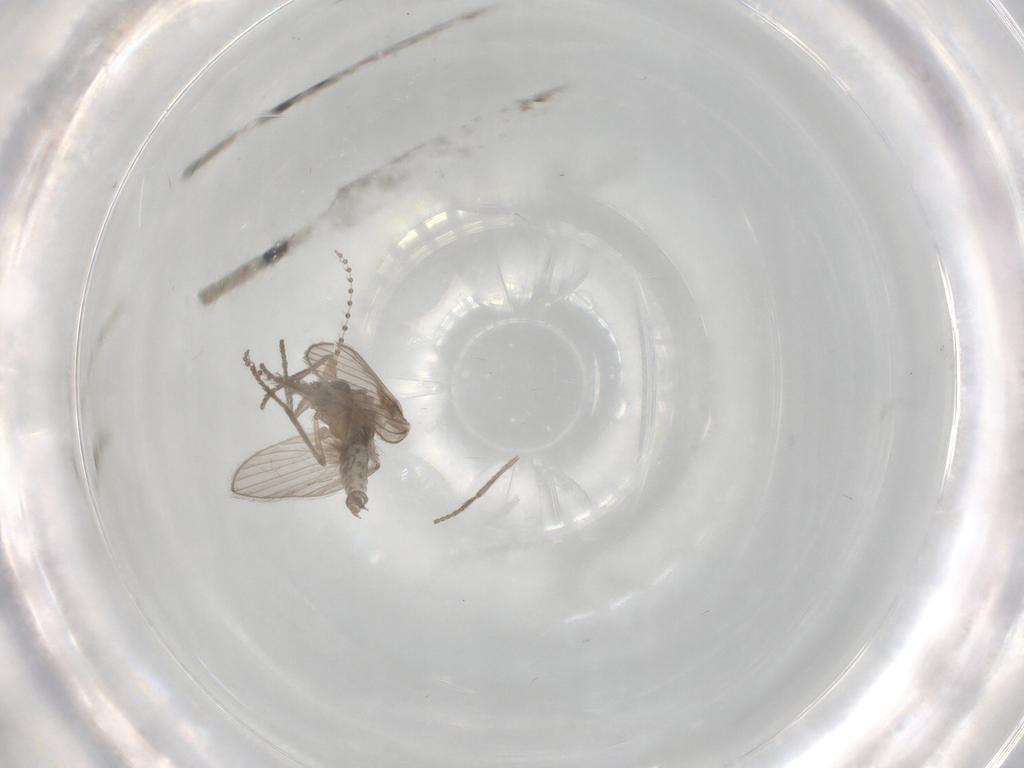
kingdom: Animalia
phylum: Arthropoda
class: Insecta
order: Diptera
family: Psychodidae
